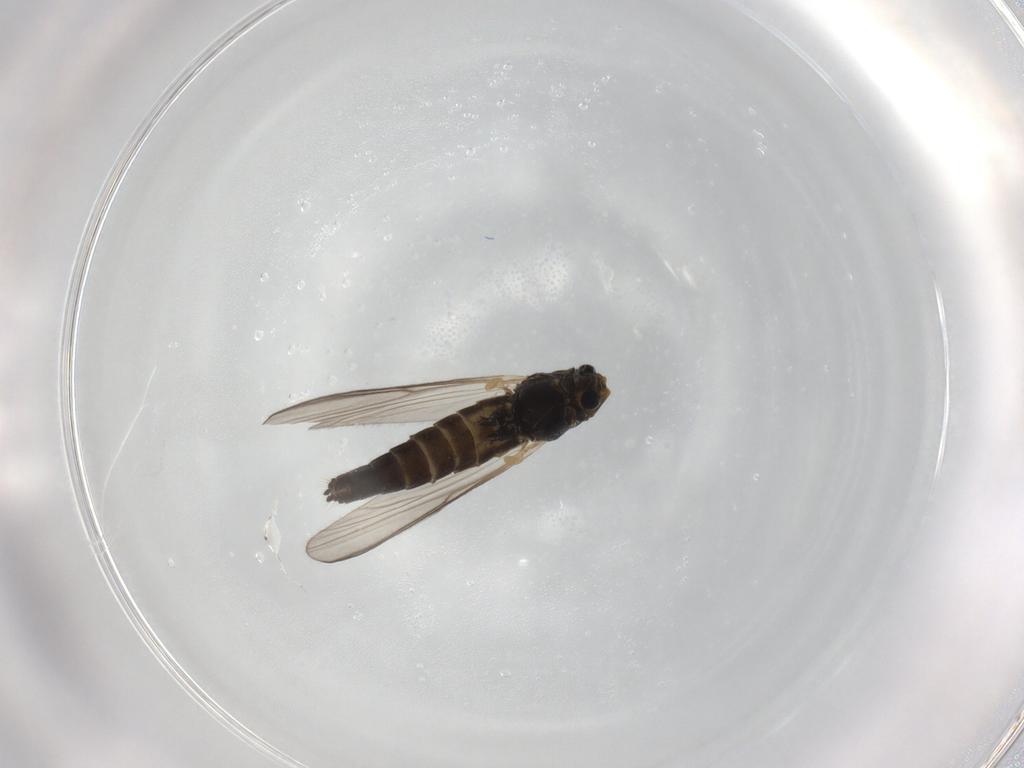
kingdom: Animalia
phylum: Arthropoda
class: Insecta
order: Diptera
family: Chironomidae
